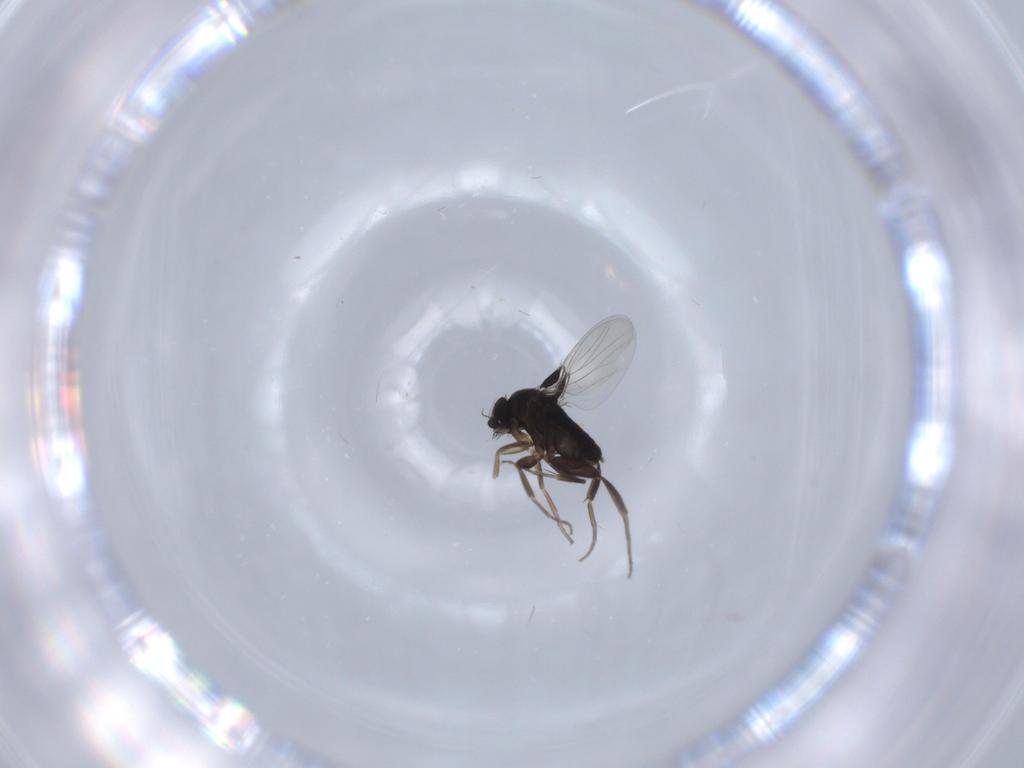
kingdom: Animalia
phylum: Arthropoda
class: Insecta
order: Diptera
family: Phoridae
